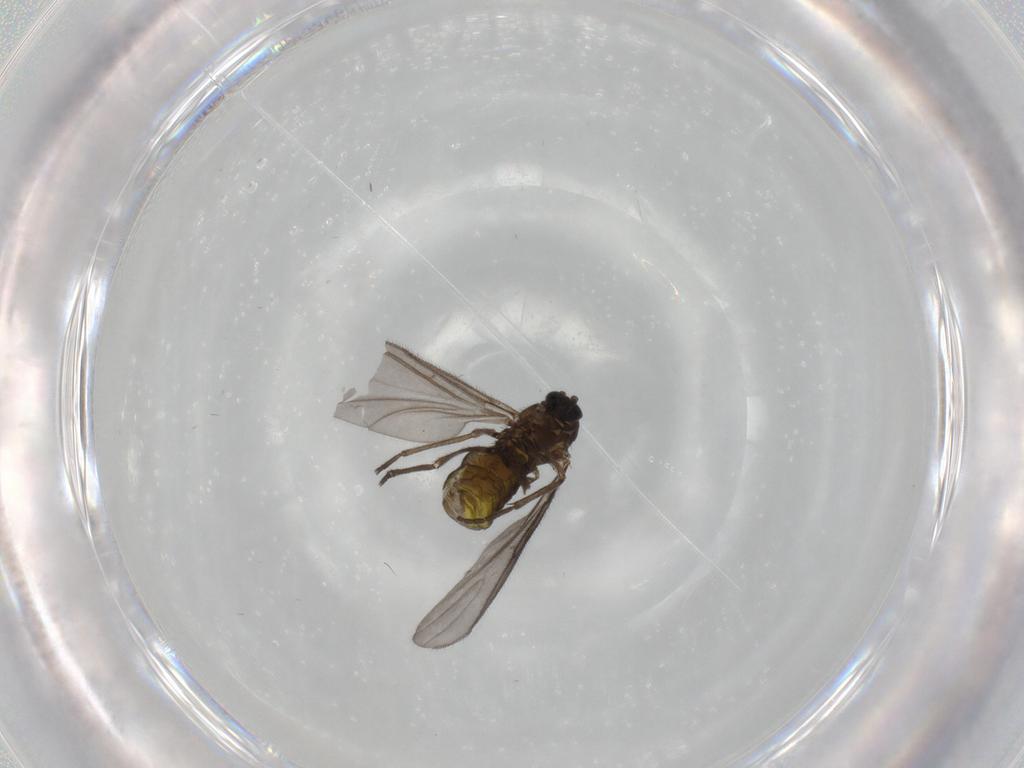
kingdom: Animalia
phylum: Arthropoda
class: Insecta
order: Diptera
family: Sciaridae
